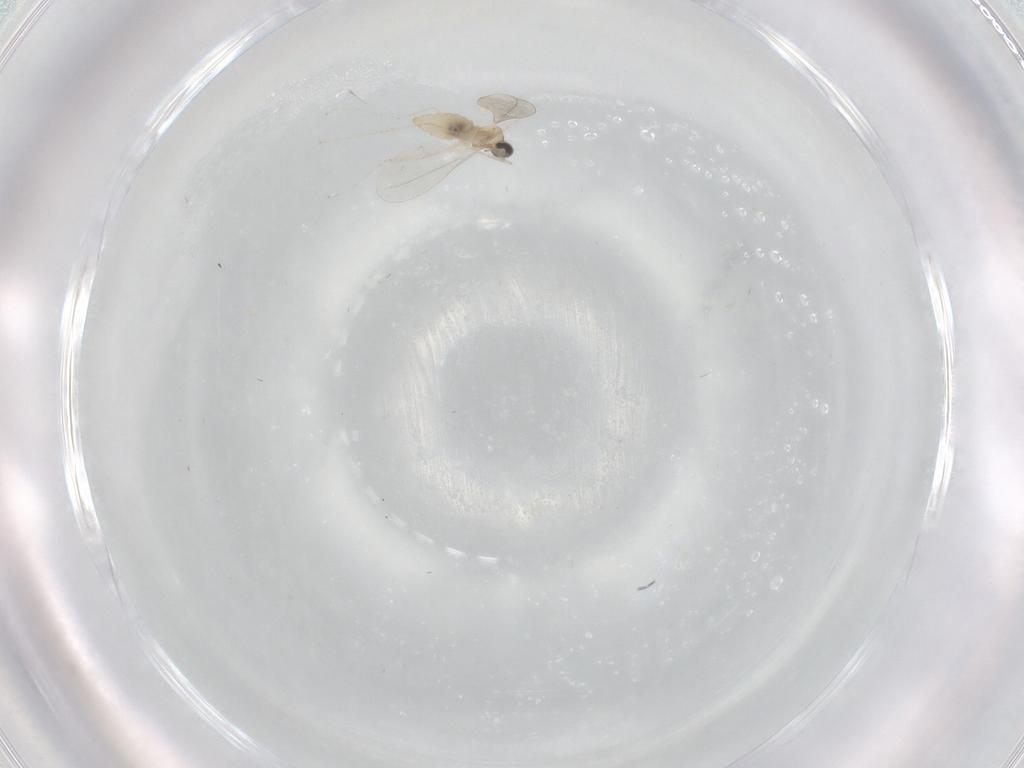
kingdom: Animalia
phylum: Arthropoda
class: Insecta
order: Diptera
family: Chironomidae
